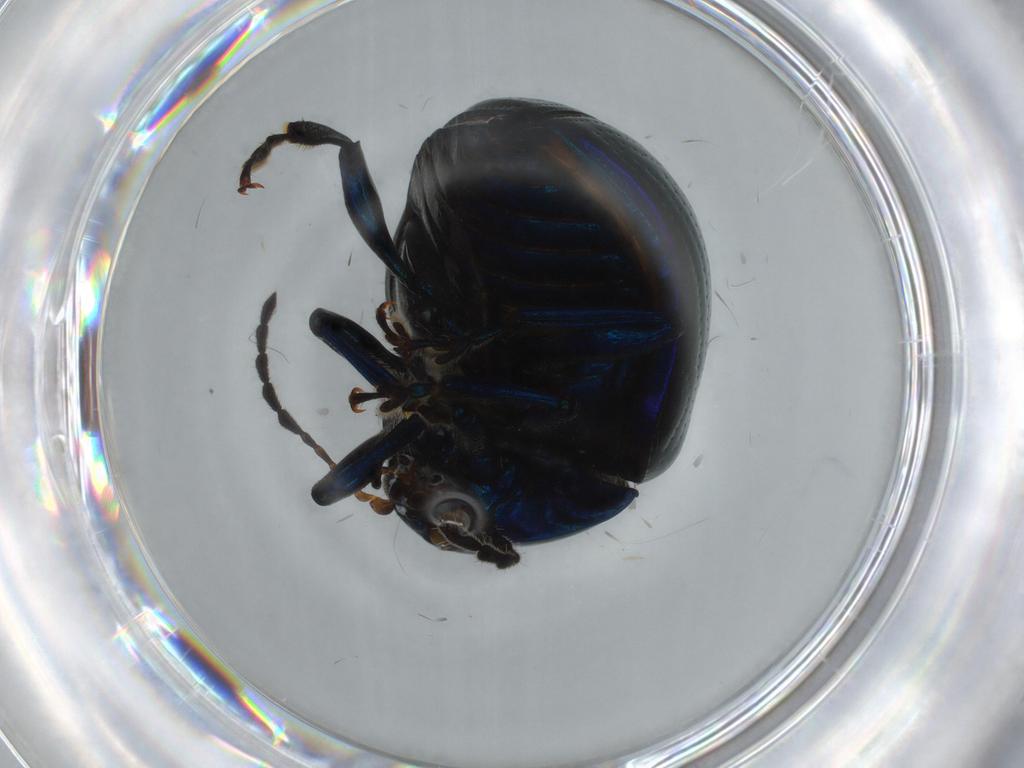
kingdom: Animalia
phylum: Arthropoda
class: Insecta
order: Coleoptera
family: Chrysomelidae
